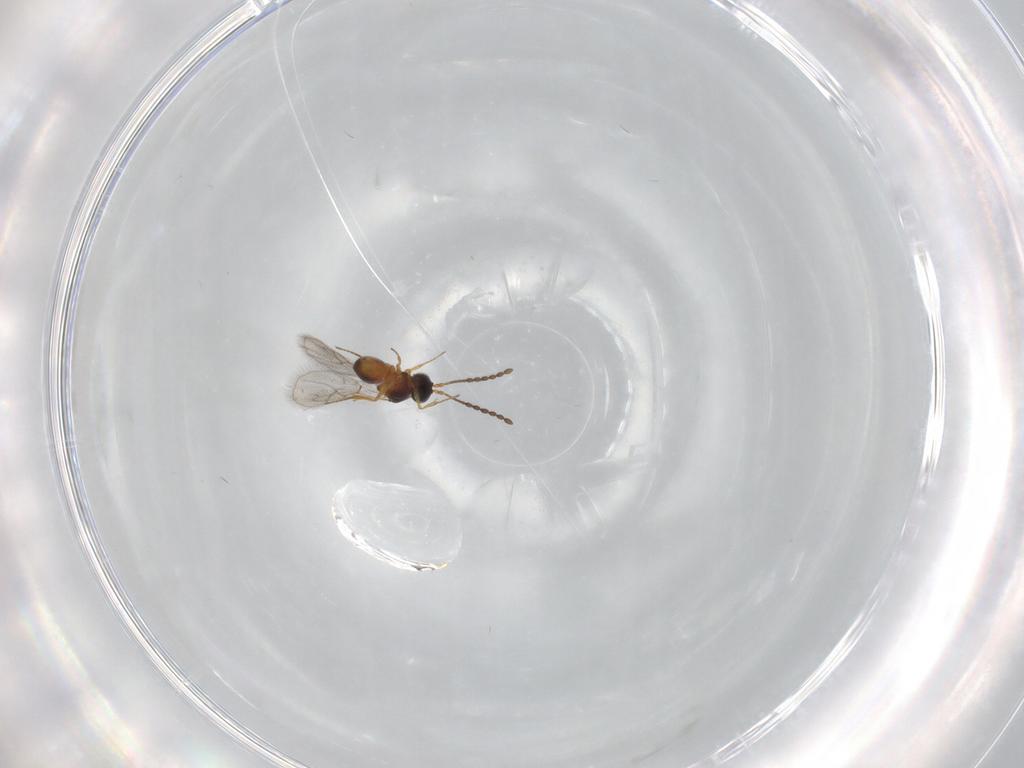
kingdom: Animalia
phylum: Arthropoda
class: Insecta
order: Hymenoptera
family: Figitidae
